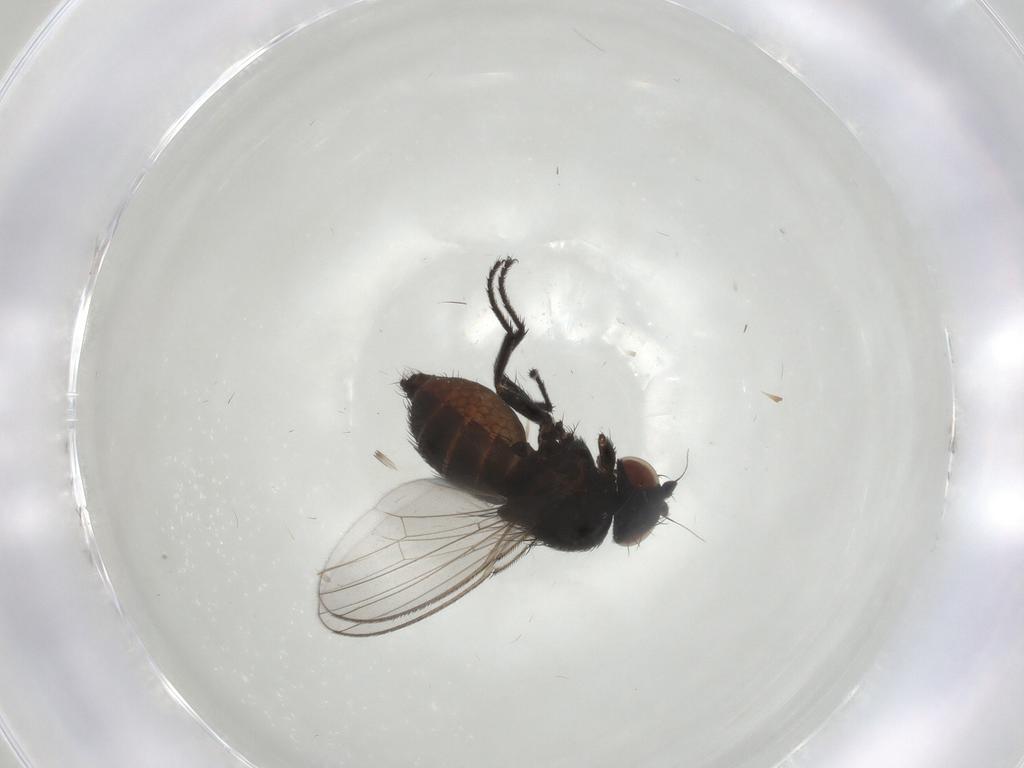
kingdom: Animalia
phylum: Arthropoda
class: Insecta
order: Diptera
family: Milichiidae
